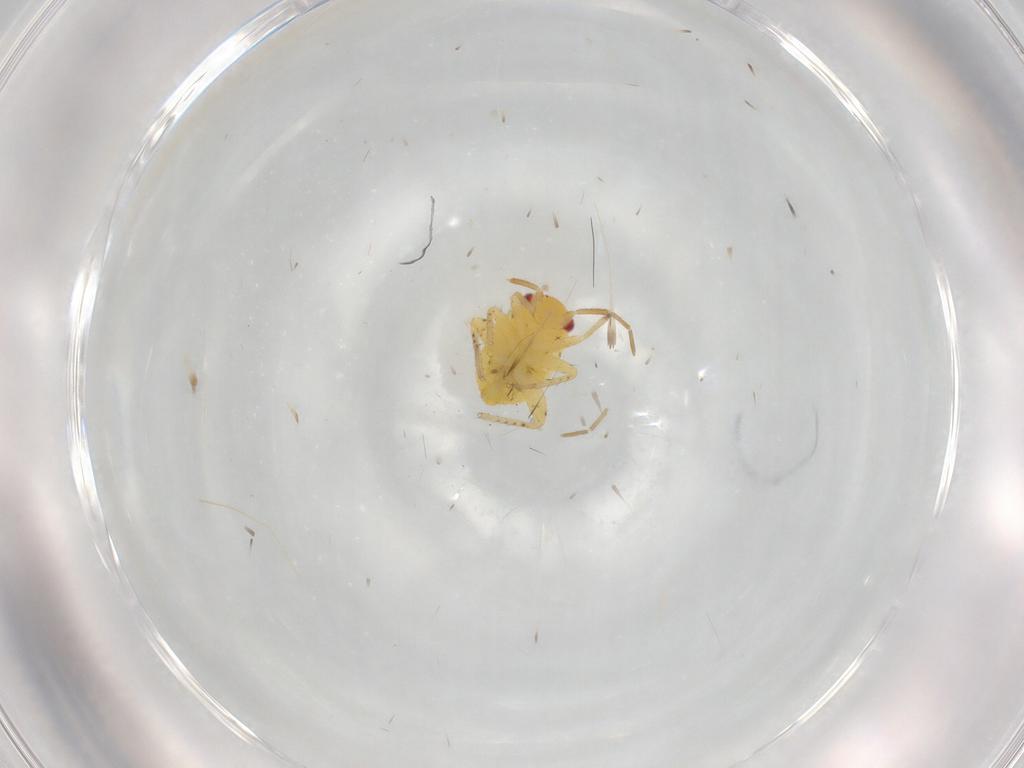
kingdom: Animalia
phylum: Arthropoda
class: Insecta
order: Hemiptera
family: Miridae
